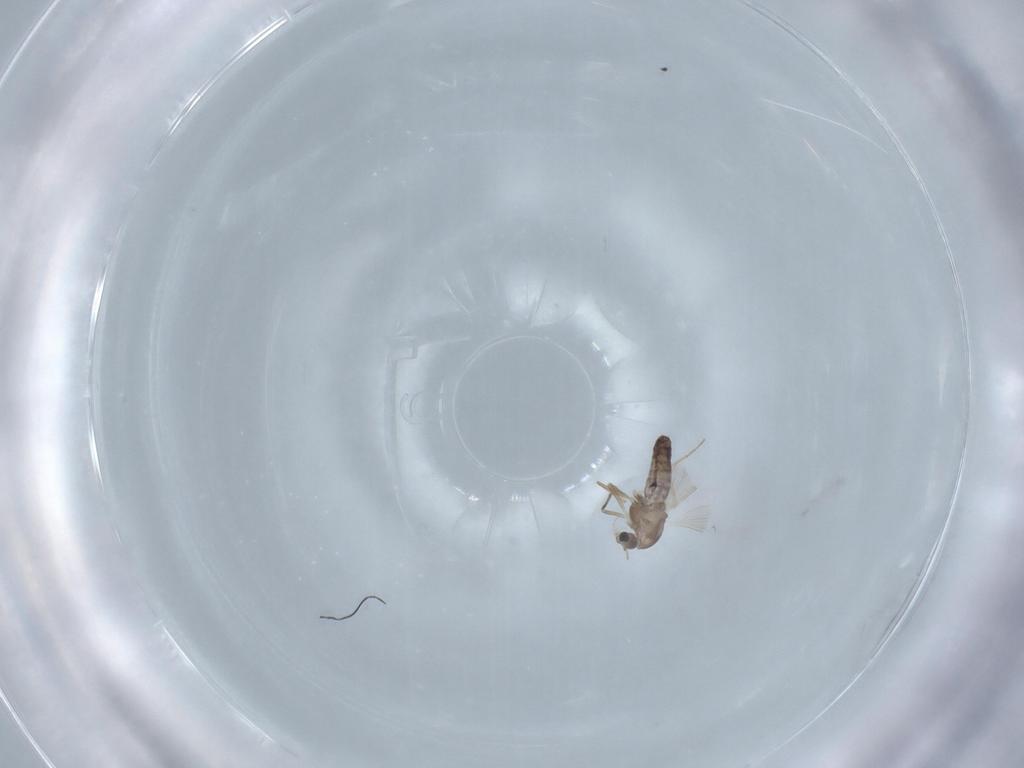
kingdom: Animalia
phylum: Arthropoda
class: Insecta
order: Diptera
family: Chironomidae
